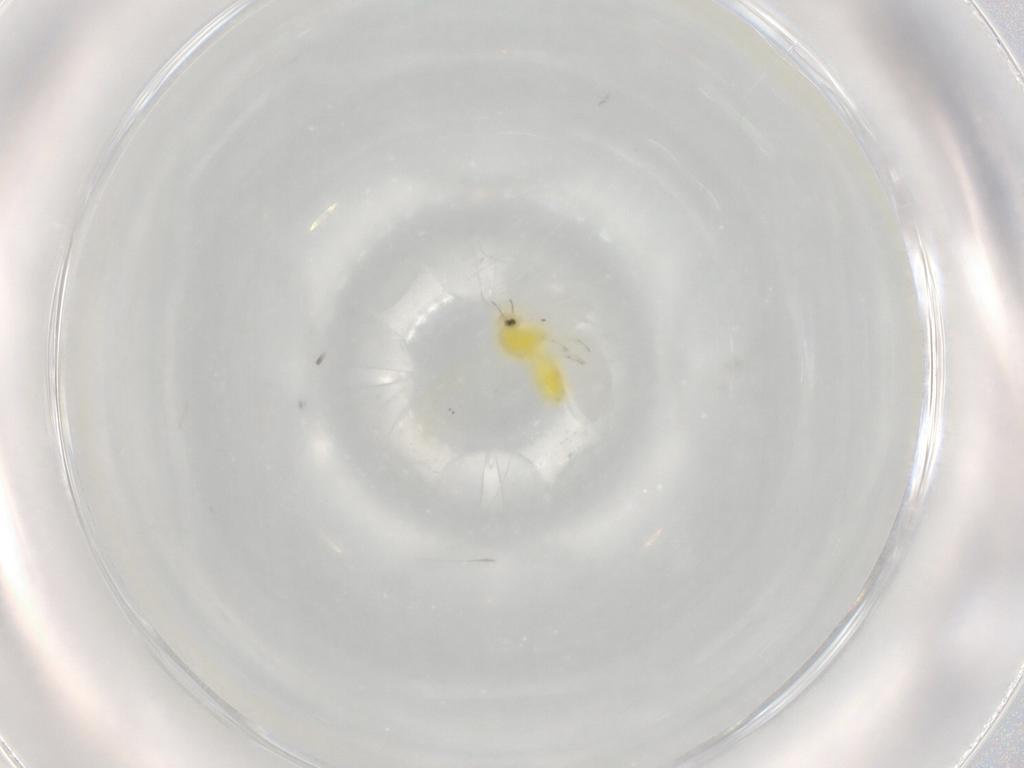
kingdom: Animalia
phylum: Arthropoda
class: Insecta
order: Hemiptera
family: Aleyrodidae
